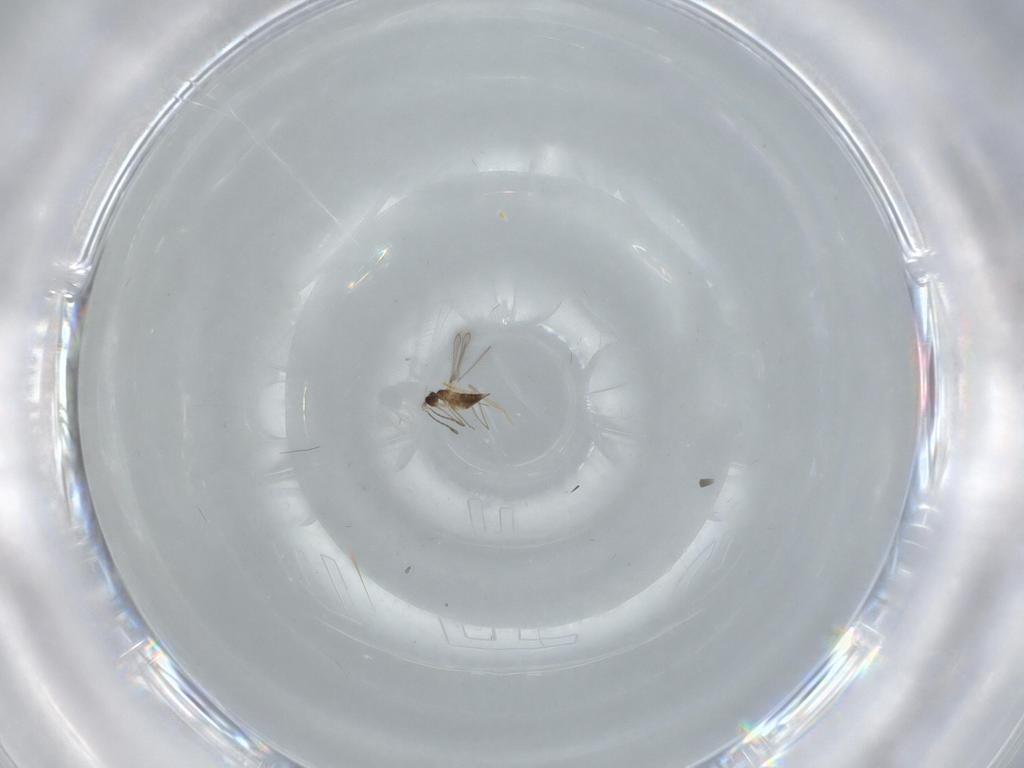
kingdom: Animalia
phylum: Arthropoda
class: Insecta
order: Hymenoptera
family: Mymaridae
